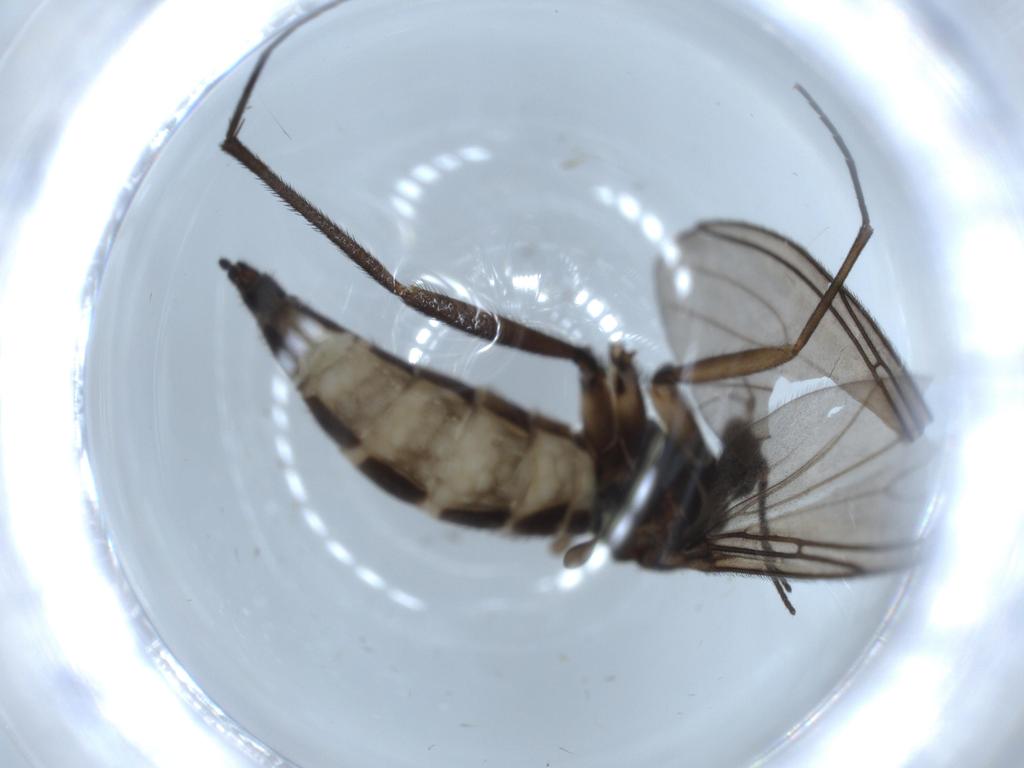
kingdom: Animalia
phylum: Arthropoda
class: Insecta
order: Diptera
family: Sciaridae
